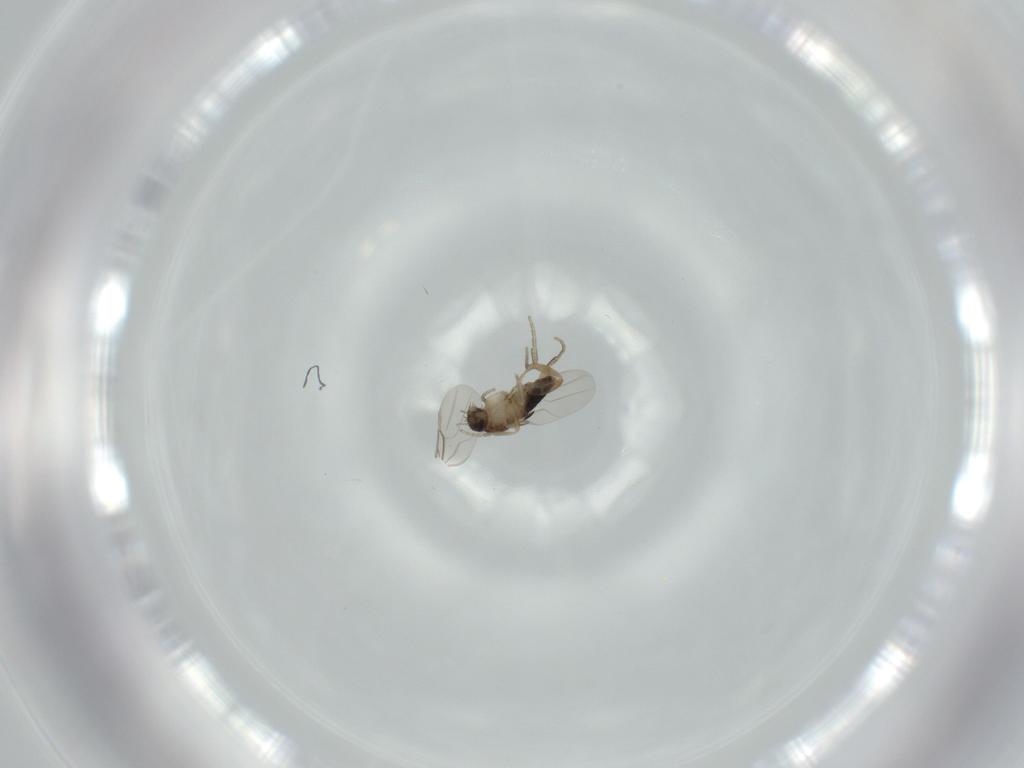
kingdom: Animalia
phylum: Arthropoda
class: Insecta
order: Diptera
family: Phoridae
